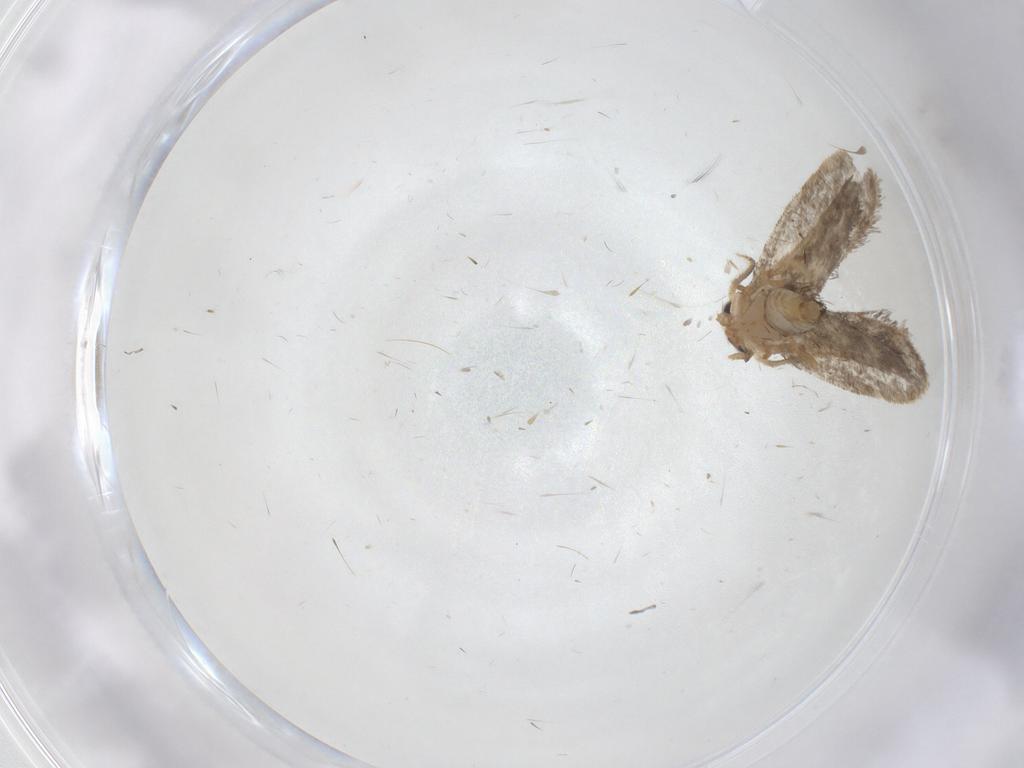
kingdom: Animalia
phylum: Arthropoda
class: Insecta
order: Lepidoptera
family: Psychidae
